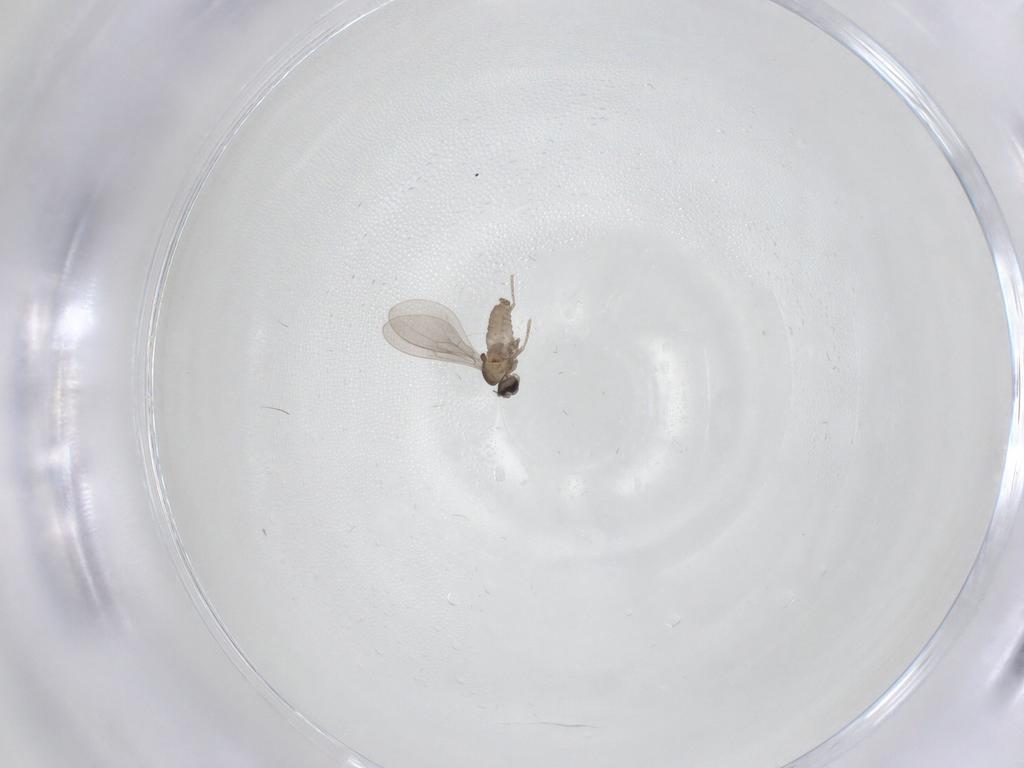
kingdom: Animalia
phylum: Arthropoda
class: Insecta
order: Diptera
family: Cecidomyiidae
